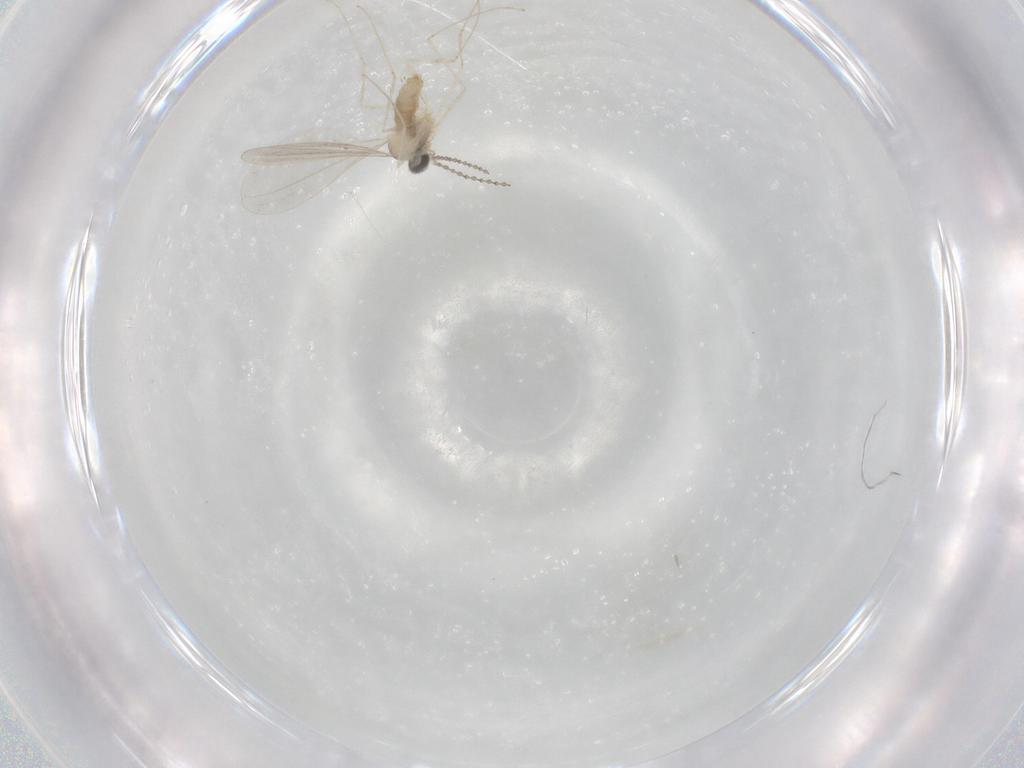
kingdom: Animalia
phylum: Arthropoda
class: Insecta
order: Diptera
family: Cecidomyiidae
